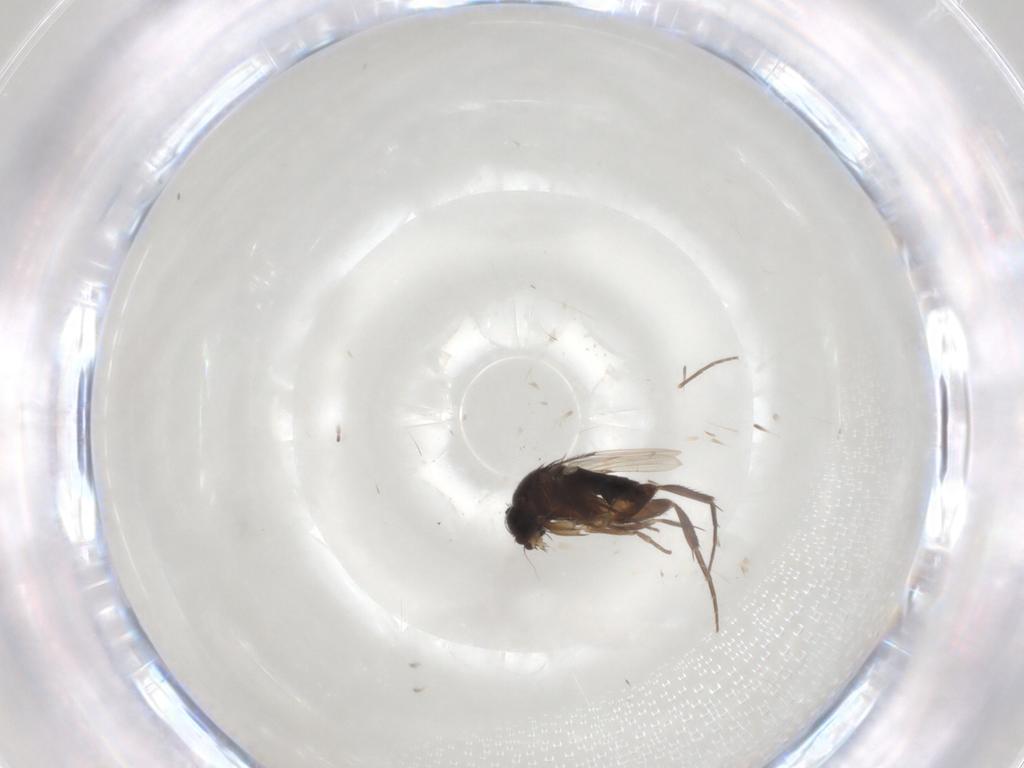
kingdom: Animalia
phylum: Arthropoda
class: Insecta
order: Diptera
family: Phoridae
